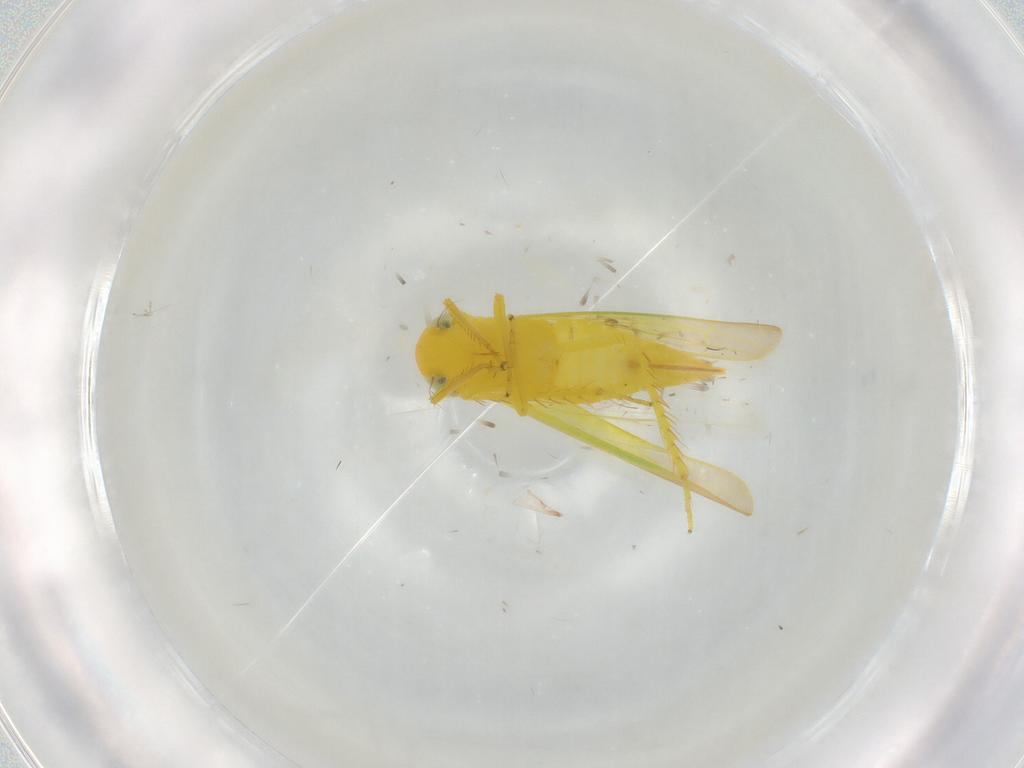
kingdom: Animalia
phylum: Arthropoda
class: Insecta
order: Hemiptera
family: Cicadellidae
